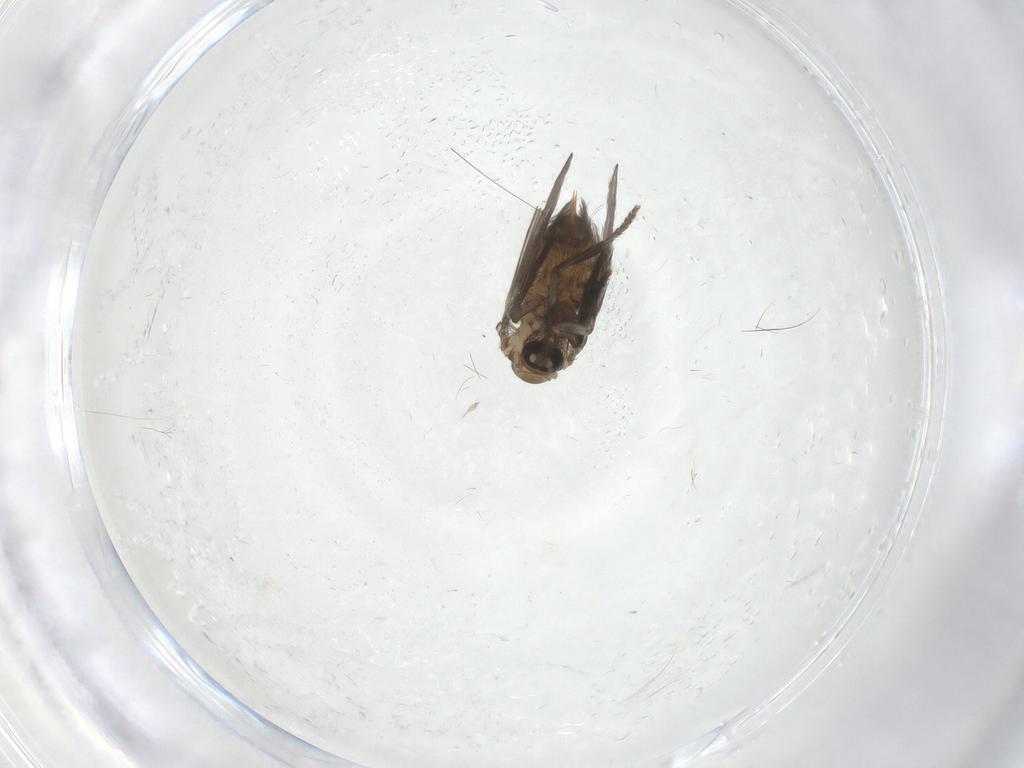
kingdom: Animalia
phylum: Arthropoda
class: Insecta
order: Diptera
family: Psychodidae
